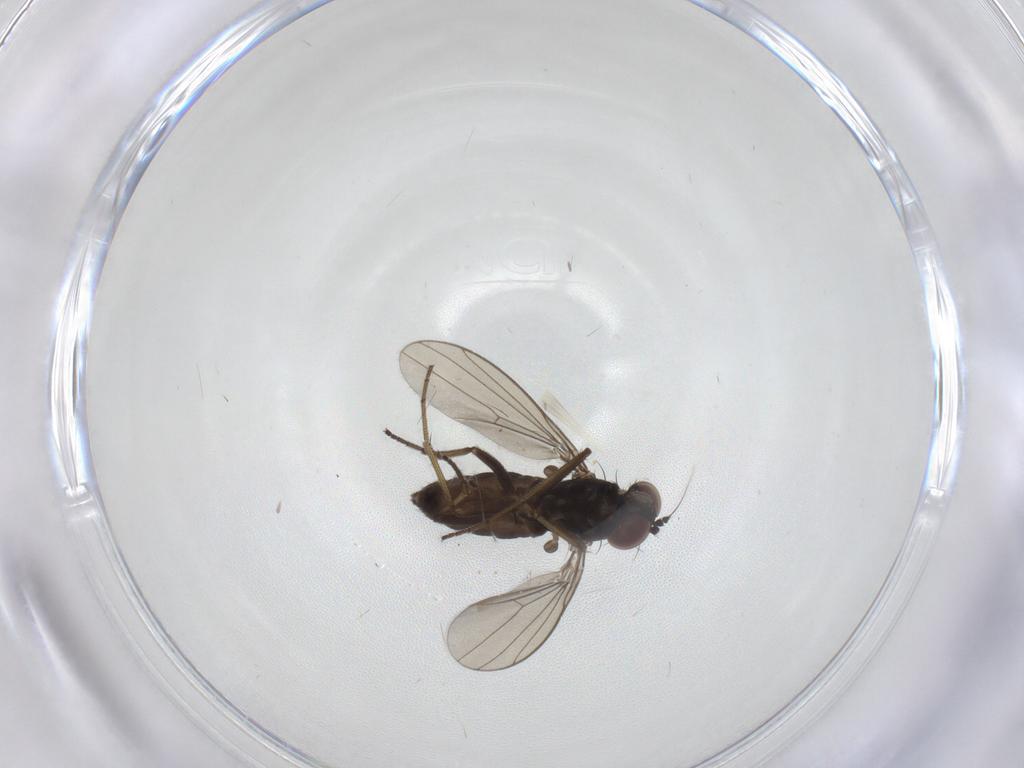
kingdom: Animalia
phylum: Arthropoda
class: Insecta
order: Diptera
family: Dolichopodidae
